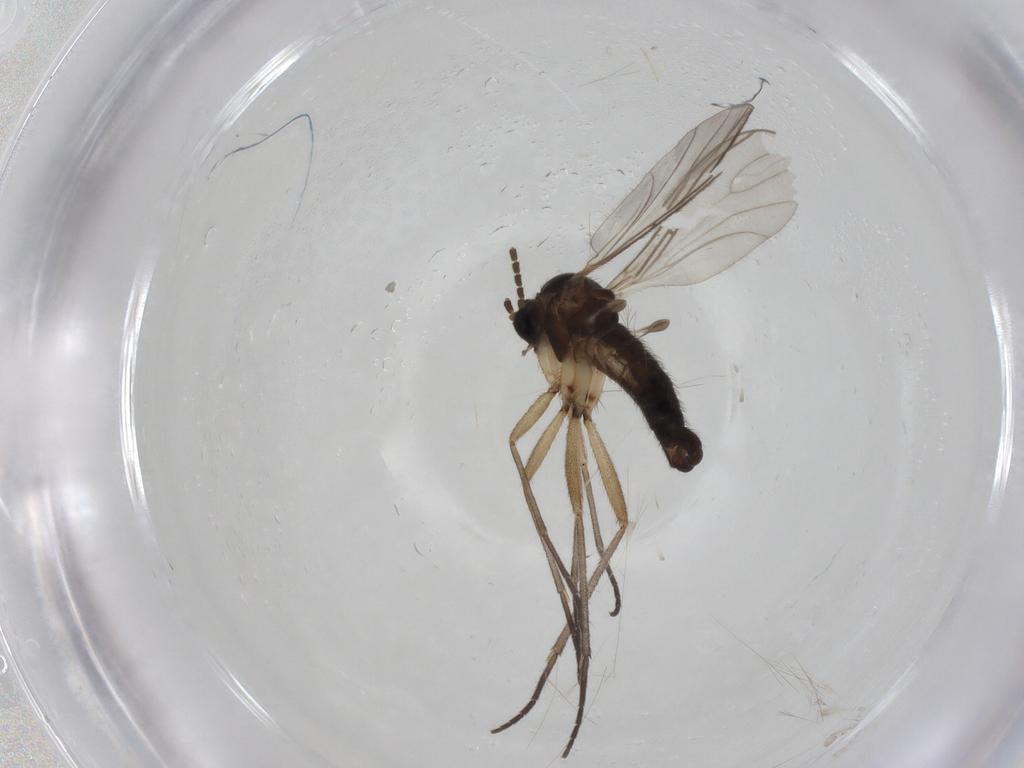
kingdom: Animalia
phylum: Arthropoda
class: Insecta
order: Diptera
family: Sciaridae
